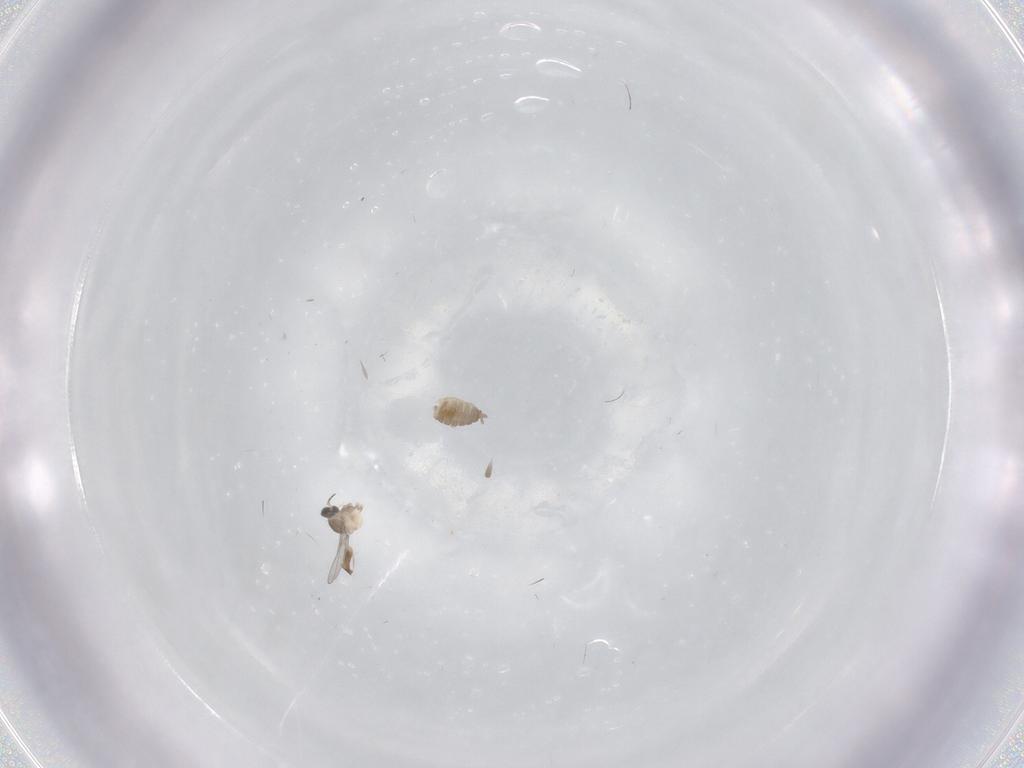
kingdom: Animalia
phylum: Arthropoda
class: Insecta
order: Diptera
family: Cecidomyiidae
